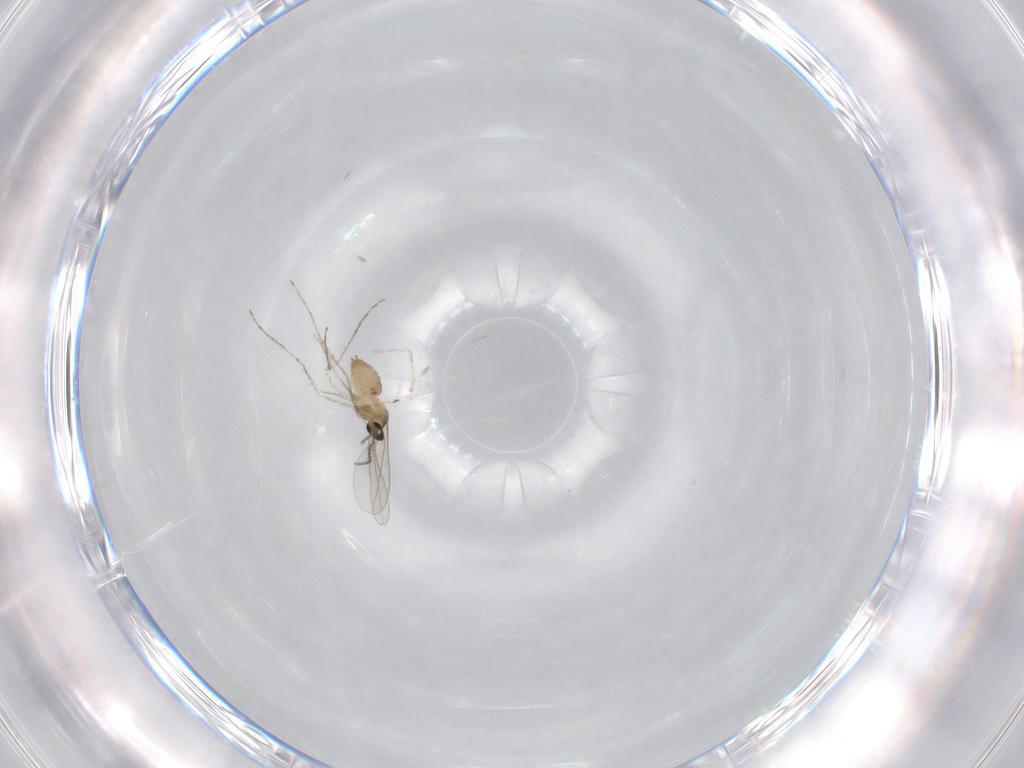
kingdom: Animalia
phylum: Arthropoda
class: Insecta
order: Diptera
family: Cecidomyiidae
